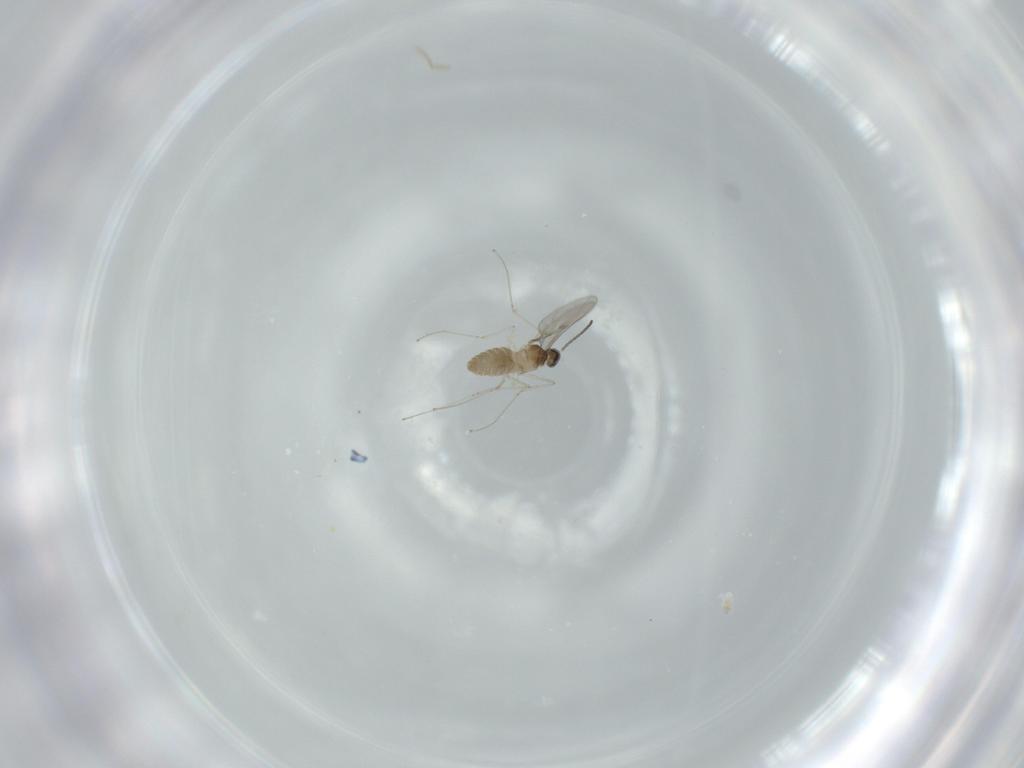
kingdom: Animalia
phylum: Arthropoda
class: Insecta
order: Diptera
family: Cecidomyiidae
